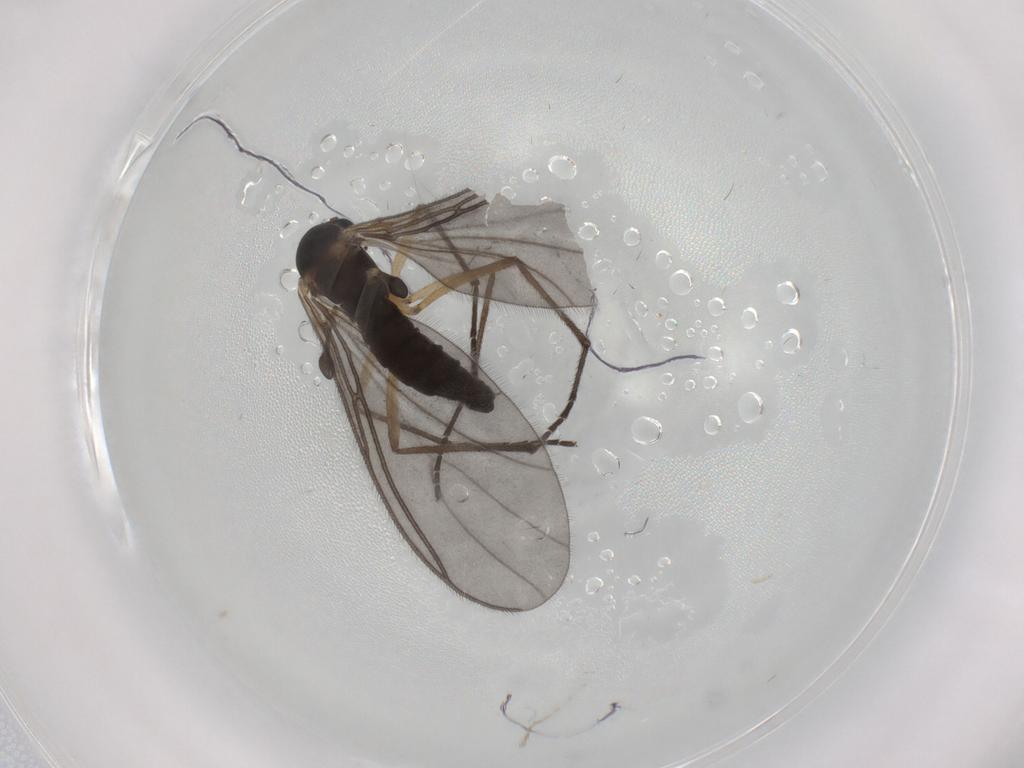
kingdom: Animalia
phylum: Arthropoda
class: Insecta
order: Diptera
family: Sciaridae
